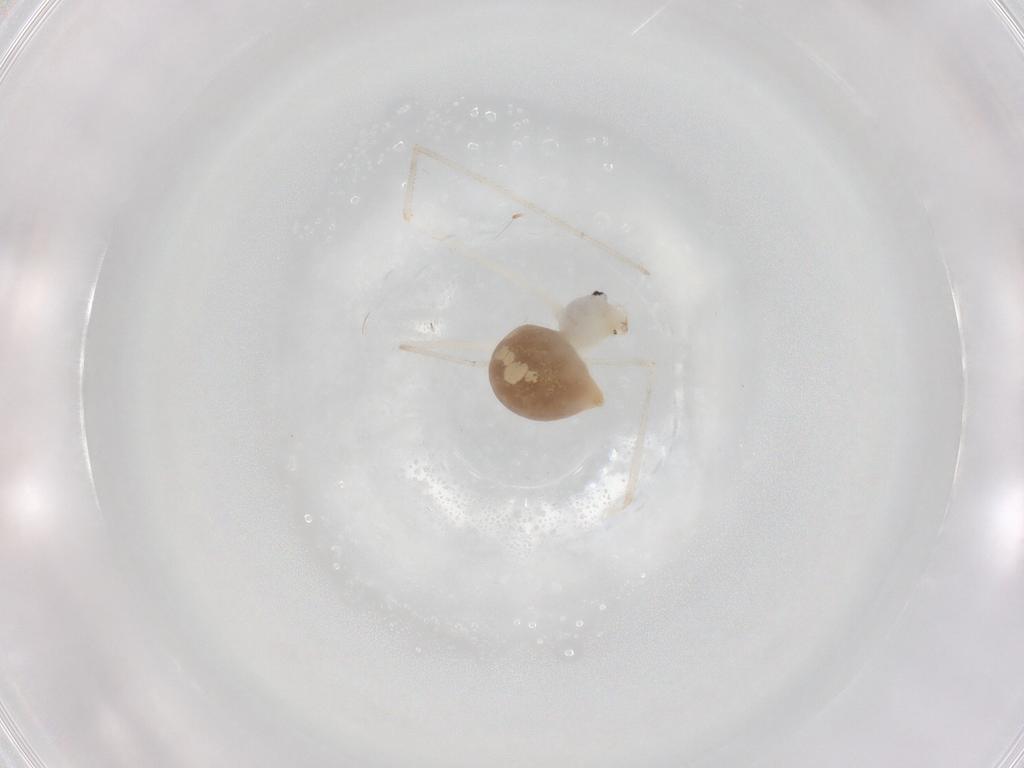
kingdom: Animalia
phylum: Arthropoda
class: Arachnida
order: Araneae
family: Pholcidae
